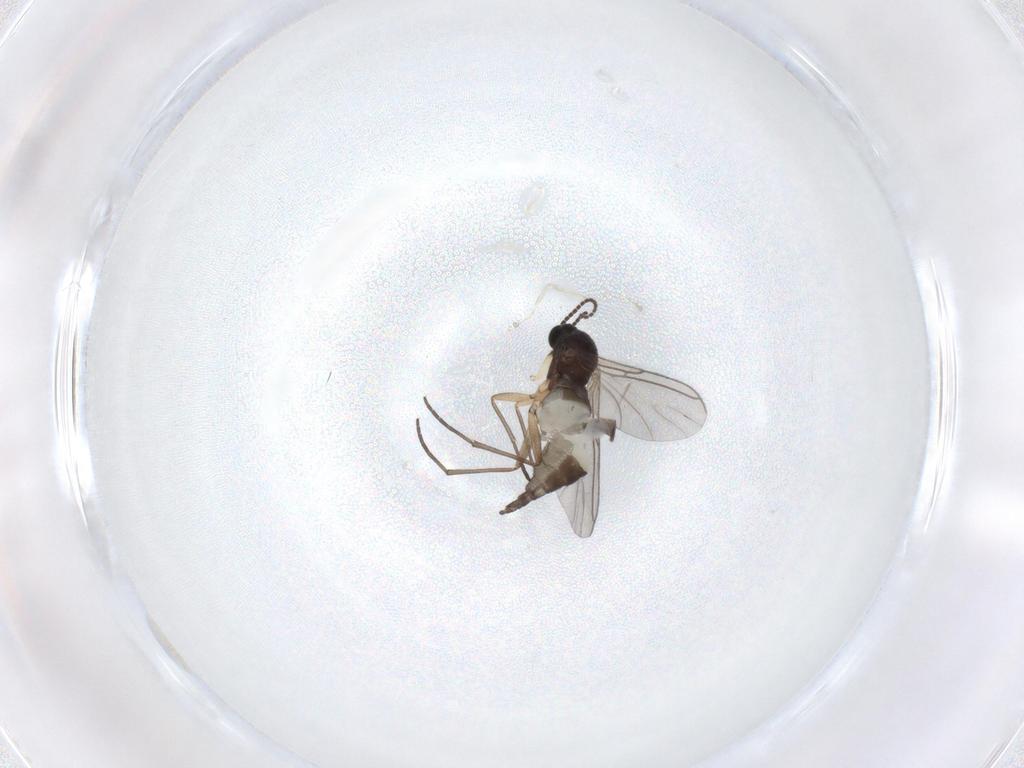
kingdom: Animalia
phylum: Arthropoda
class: Insecta
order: Diptera
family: Sciaridae
